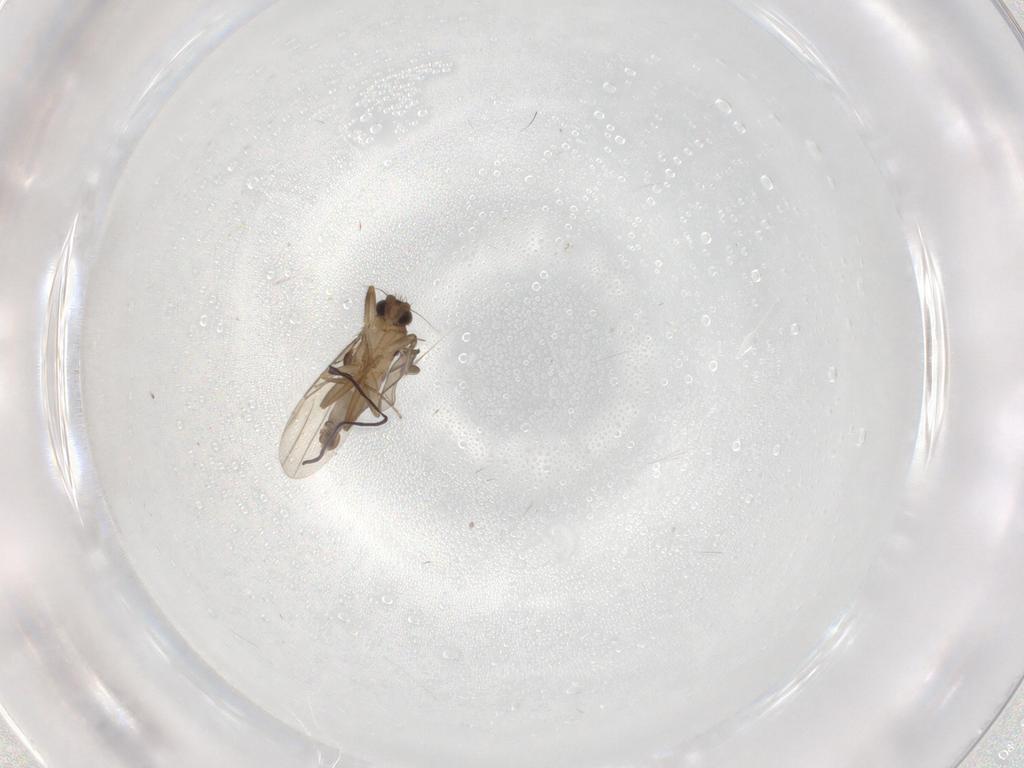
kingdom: Animalia
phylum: Arthropoda
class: Insecta
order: Diptera
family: Phoridae
